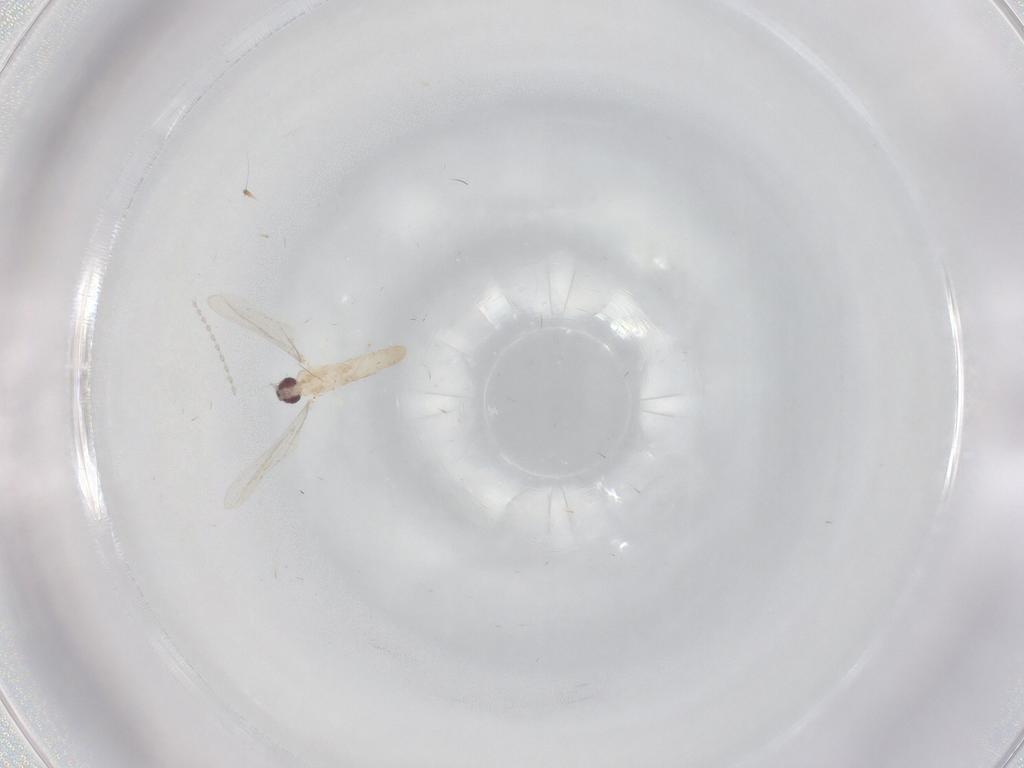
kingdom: Animalia
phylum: Arthropoda
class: Insecta
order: Diptera
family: Cecidomyiidae
